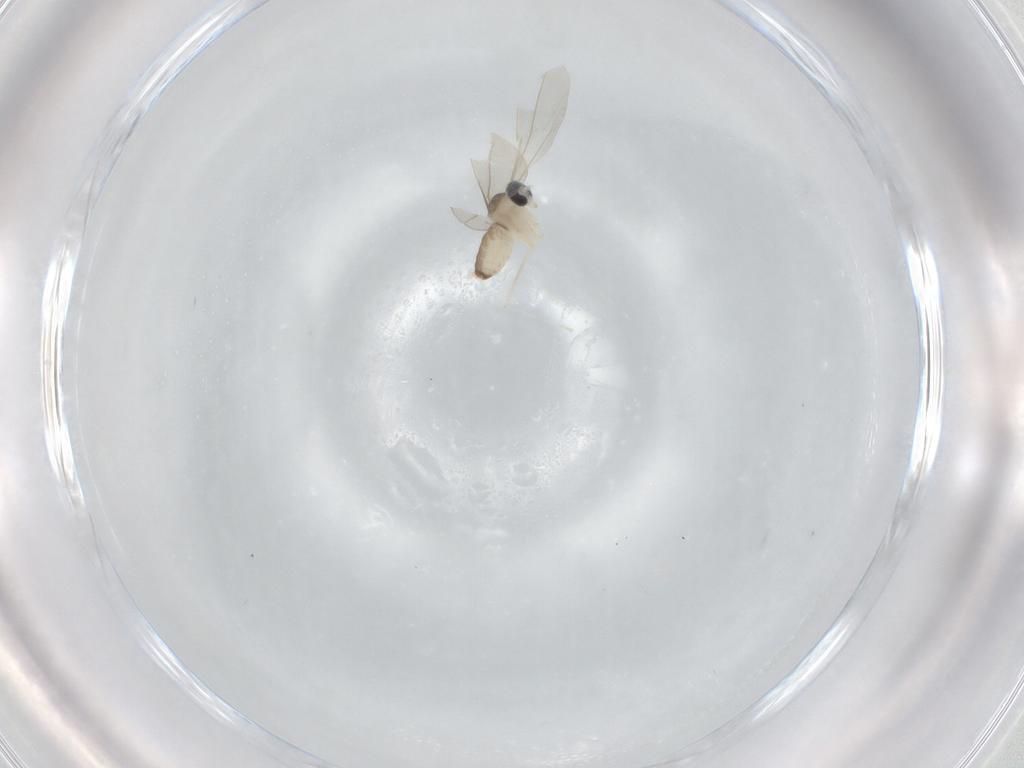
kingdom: Animalia
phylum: Arthropoda
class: Insecta
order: Diptera
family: Cecidomyiidae
